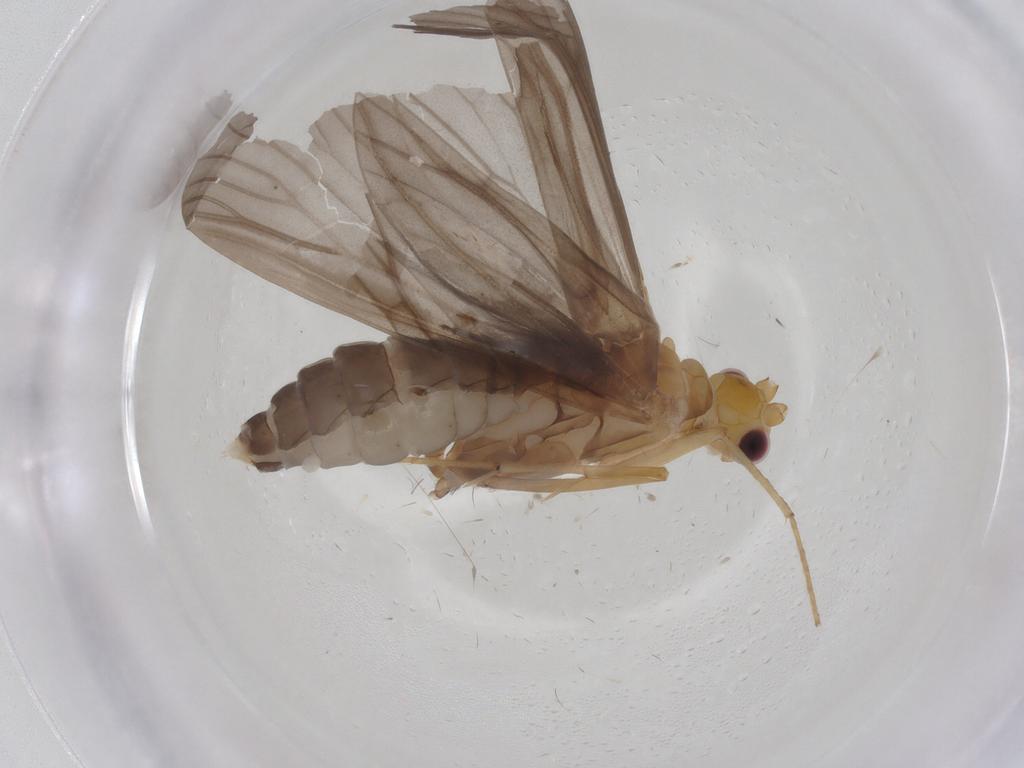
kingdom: Animalia
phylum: Arthropoda
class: Insecta
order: Trichoptera
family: Hydropsychidae
